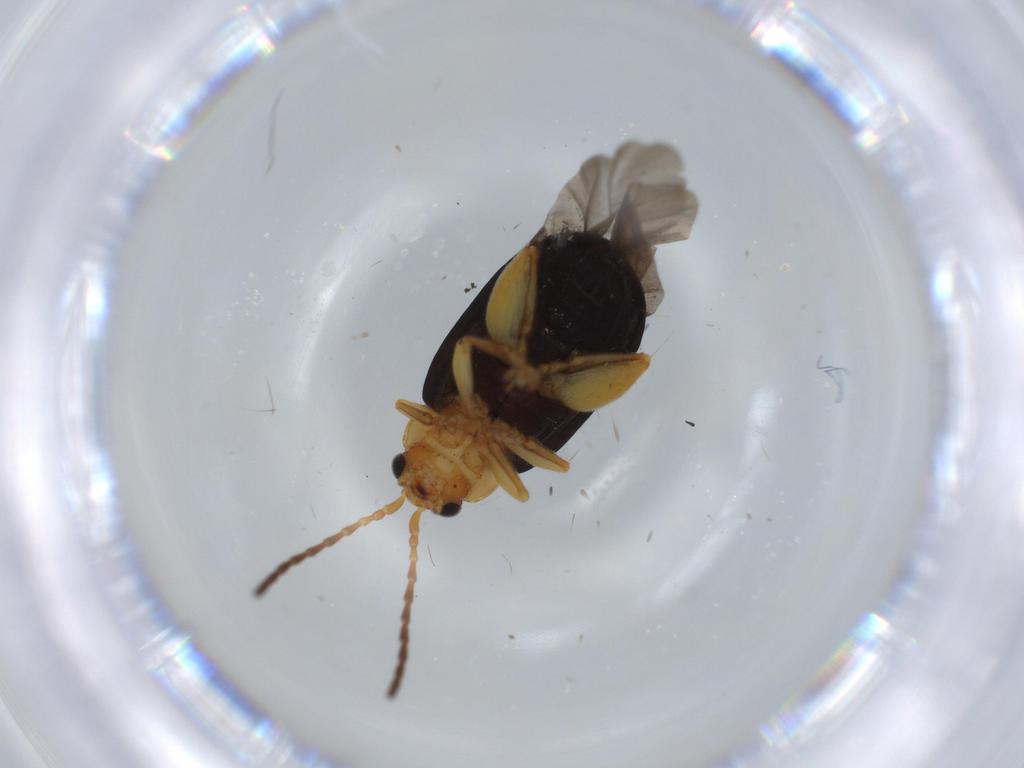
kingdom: Animalia
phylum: Arthropoda
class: Insecta
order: Coleoptera
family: Chrysomelidae
